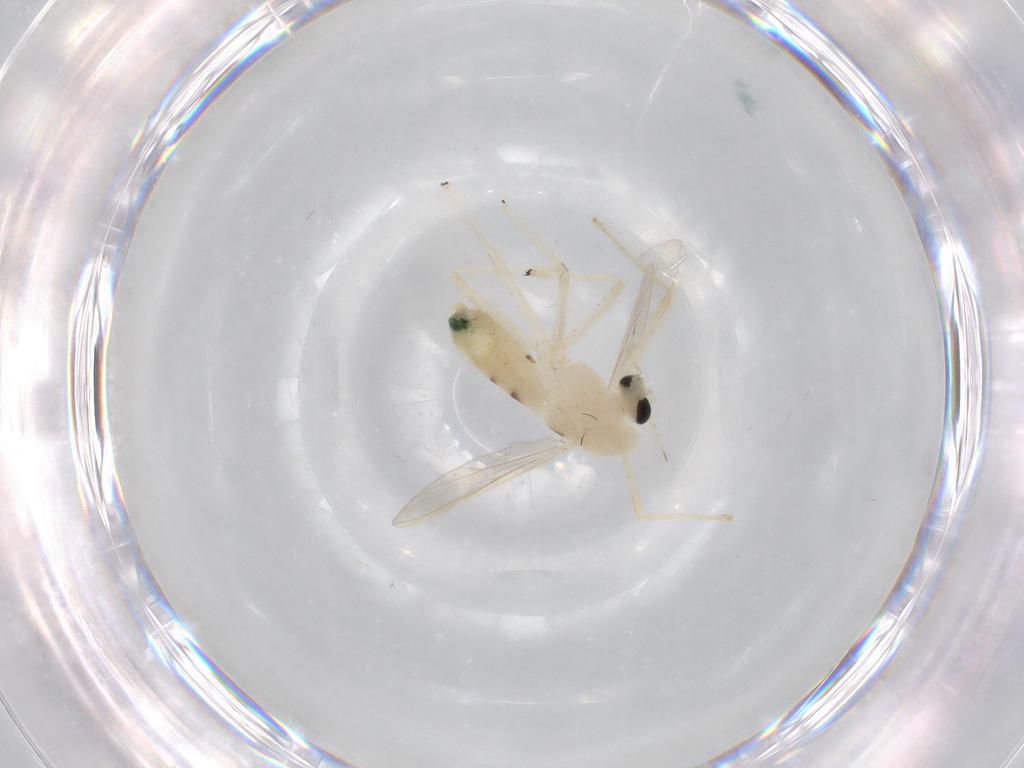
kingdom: Animalia
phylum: Arthropoda
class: Insecta
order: Diptera
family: Chironomidae
